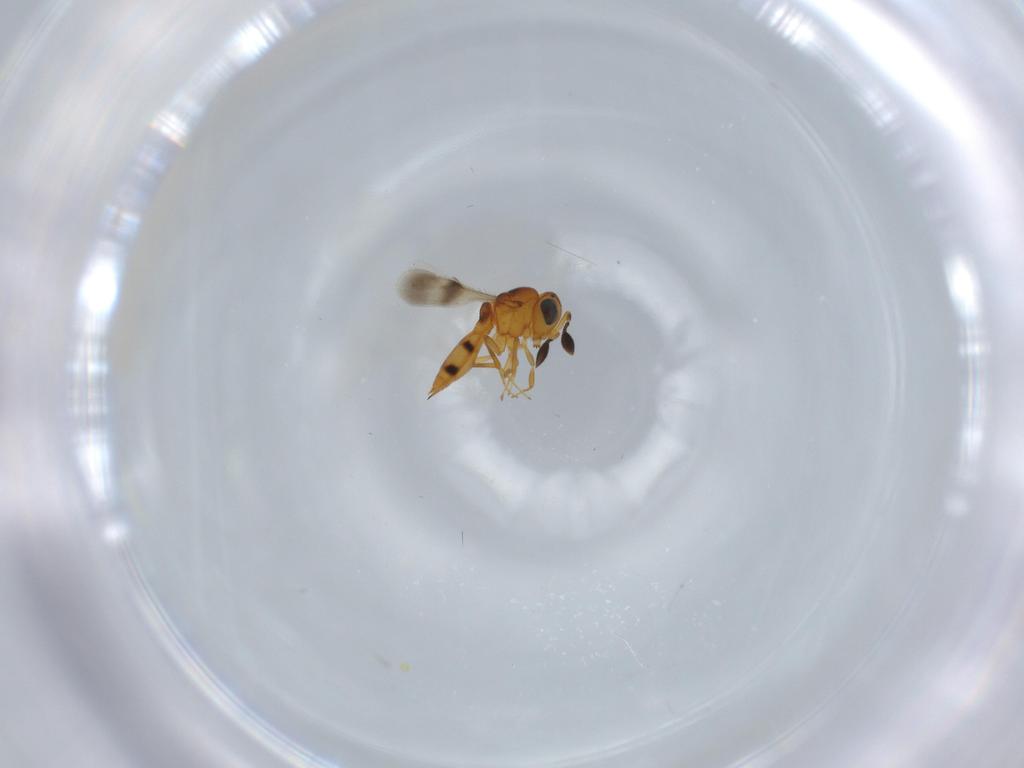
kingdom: Animalia
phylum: Arthropoda
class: Insecta
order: Hymenoptera
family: Scelionidae
